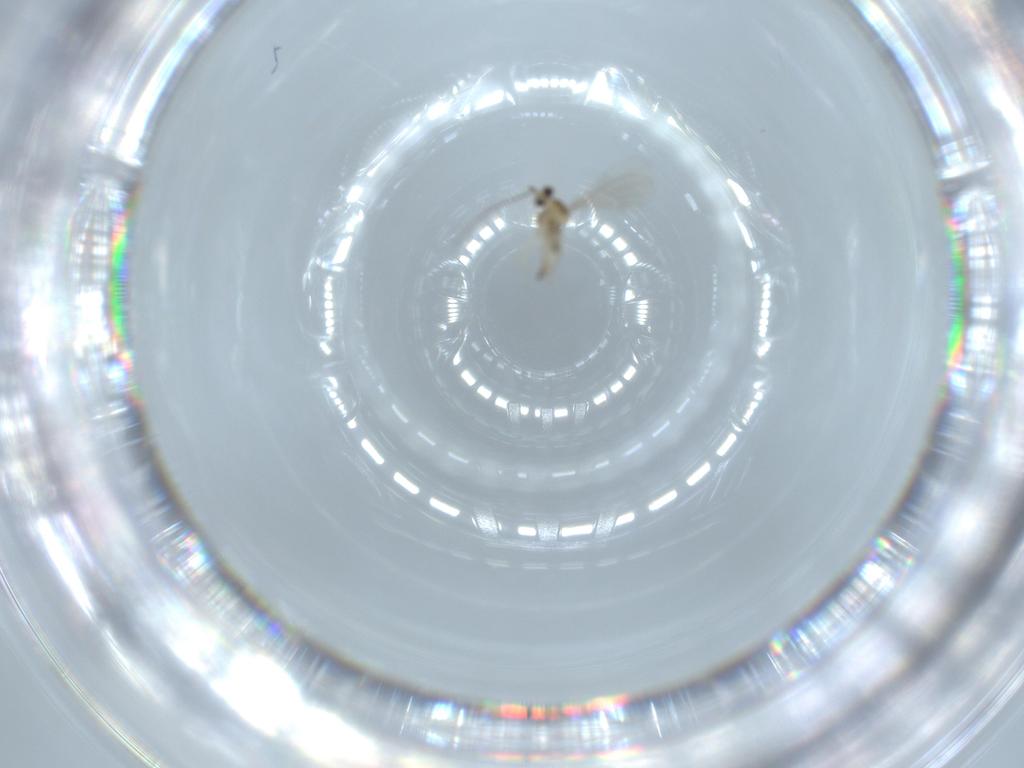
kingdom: Animalia
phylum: Arthropoda
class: Insecta
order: Diptera
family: Cecidomyiidae
